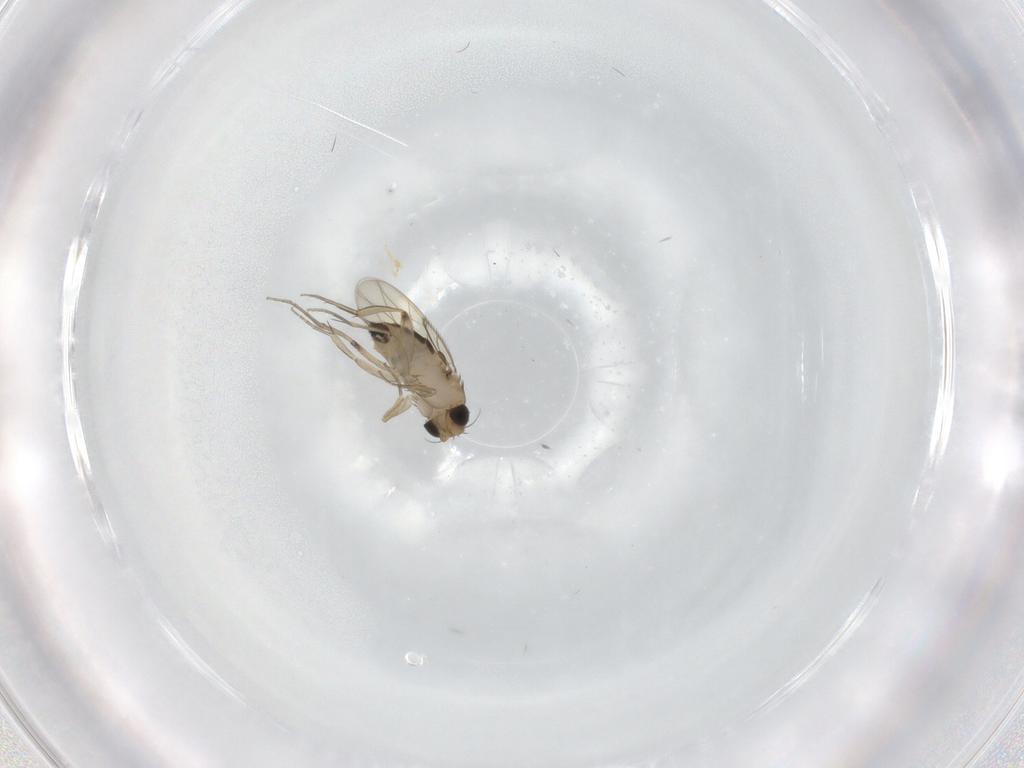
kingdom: Animalia
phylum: Arthropoda
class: Insecta
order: Diptera
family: Phoridae
